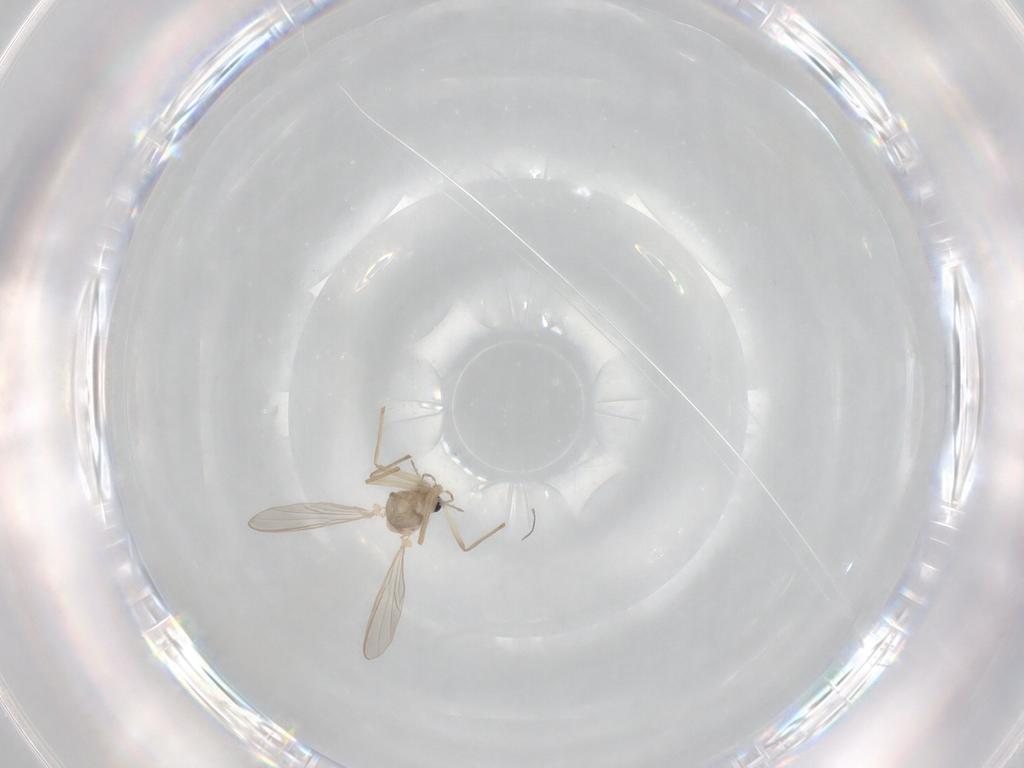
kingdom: Animalia
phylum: Arthropoda
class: Insecta
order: Diptera
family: Chironomidae
